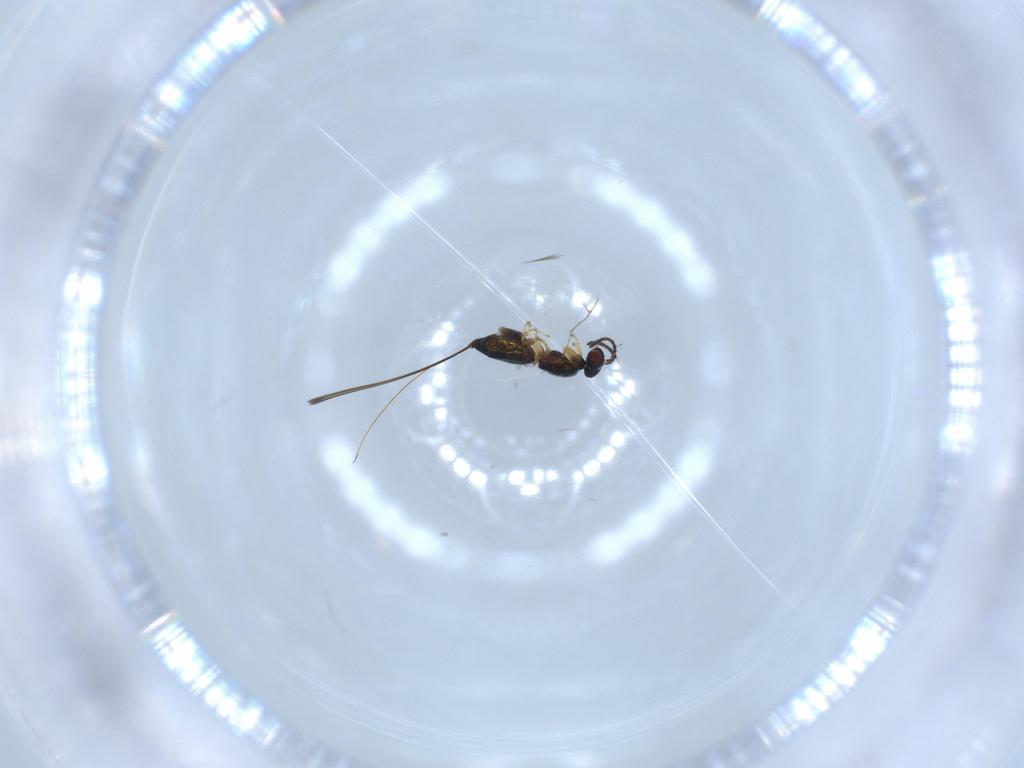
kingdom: Animalia
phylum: Arthropoda
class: Insecta
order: Hymenoptera
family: Agaonidae
